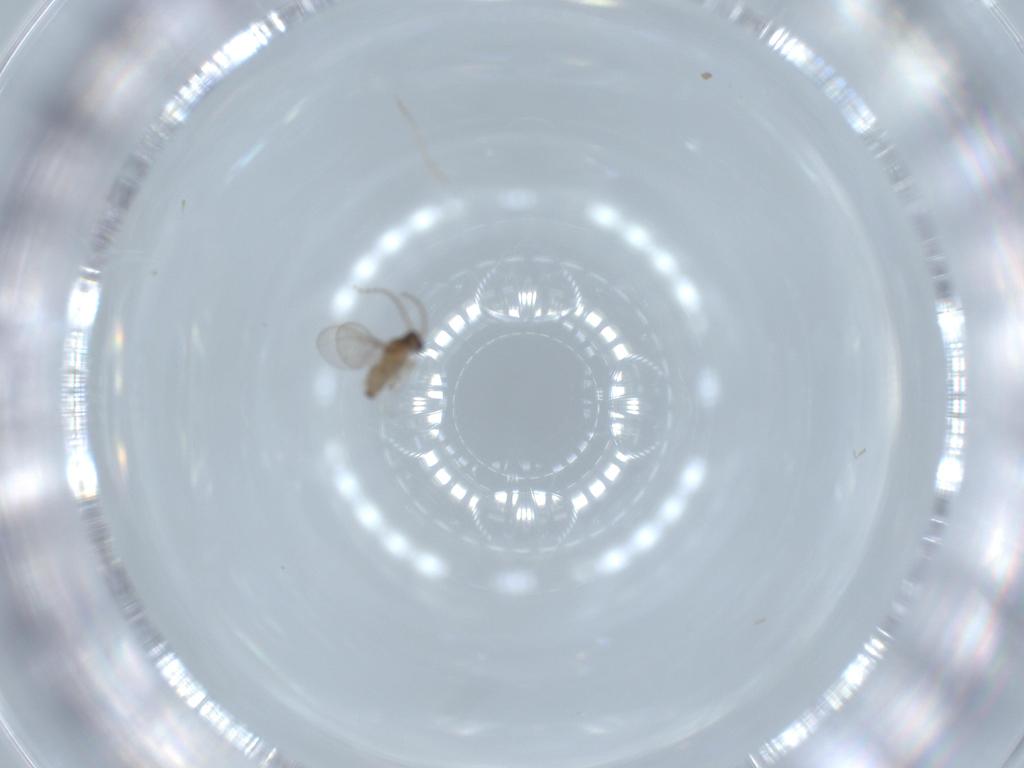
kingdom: Animalia
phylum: Arthropoda
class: Insecta
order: Diptera
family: Cecidomyiidae
